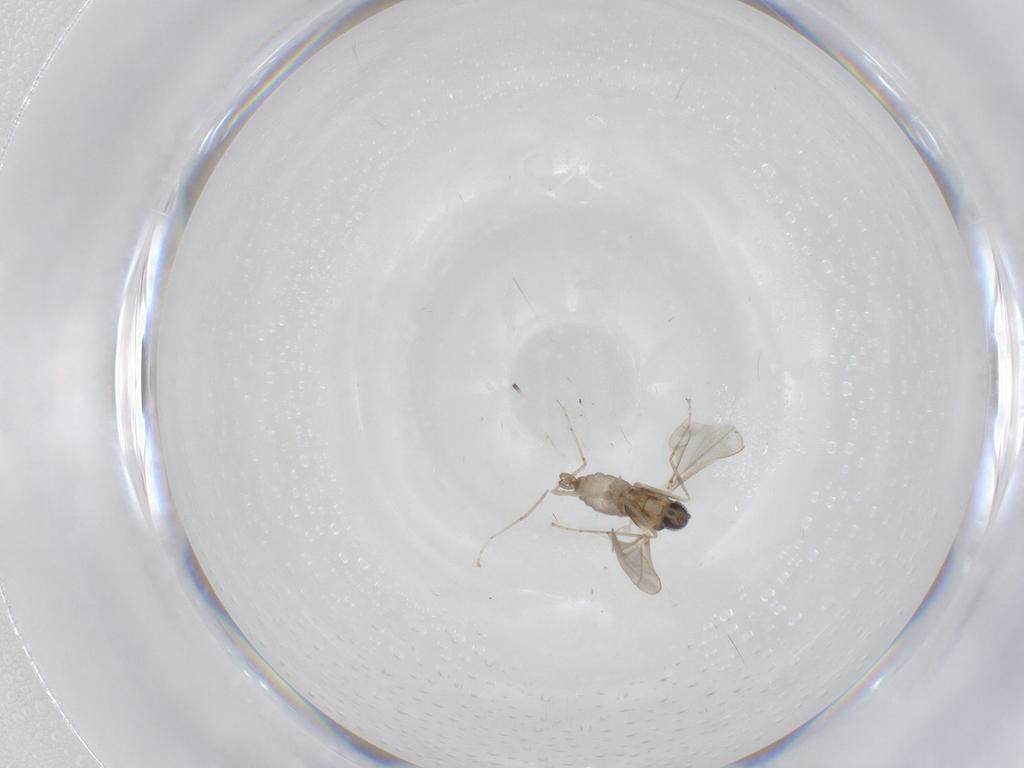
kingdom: Animalia
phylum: Arthropoda
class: Insecta
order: Diptera
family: Cecidomyiidae
